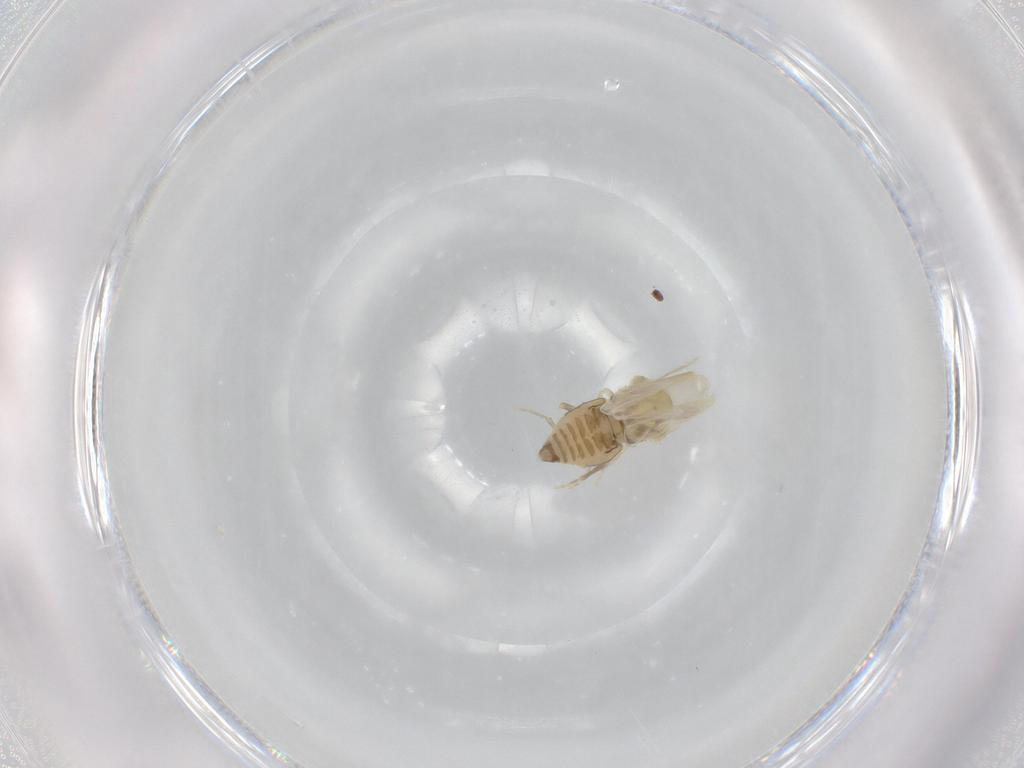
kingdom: Animalia
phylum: Arthropoda
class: Insecta
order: Hemiptera
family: Aleyrodidae
